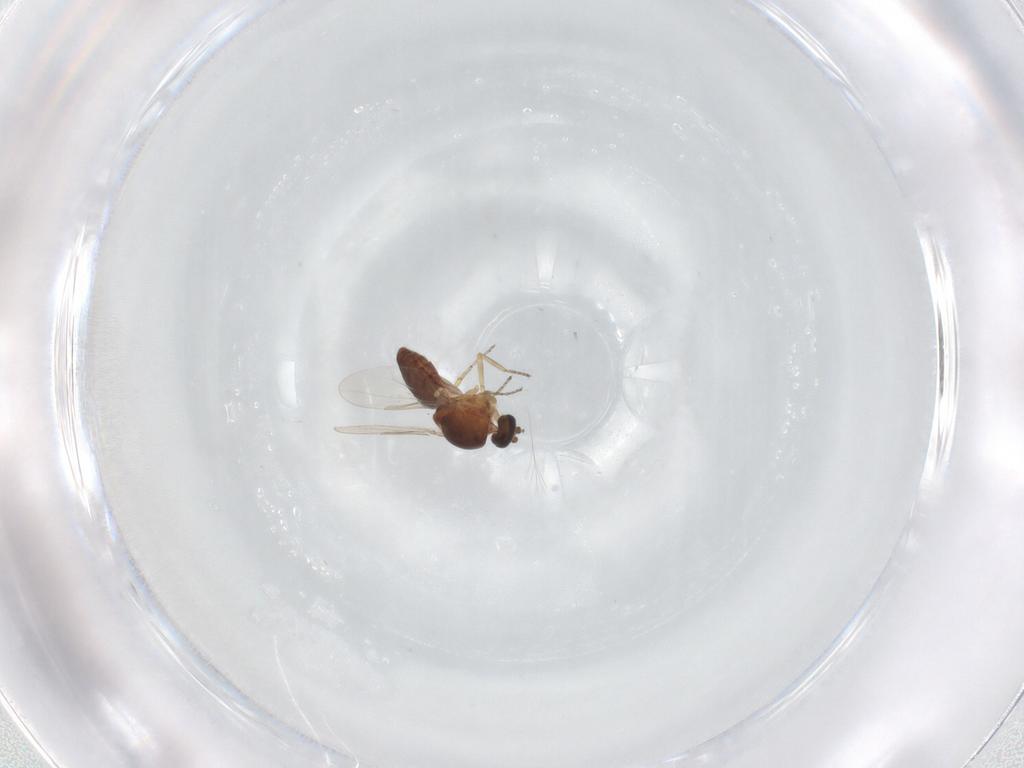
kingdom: Animalia
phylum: Arthropoda
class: Insecta
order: Diptera
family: Ceratopogonidae
